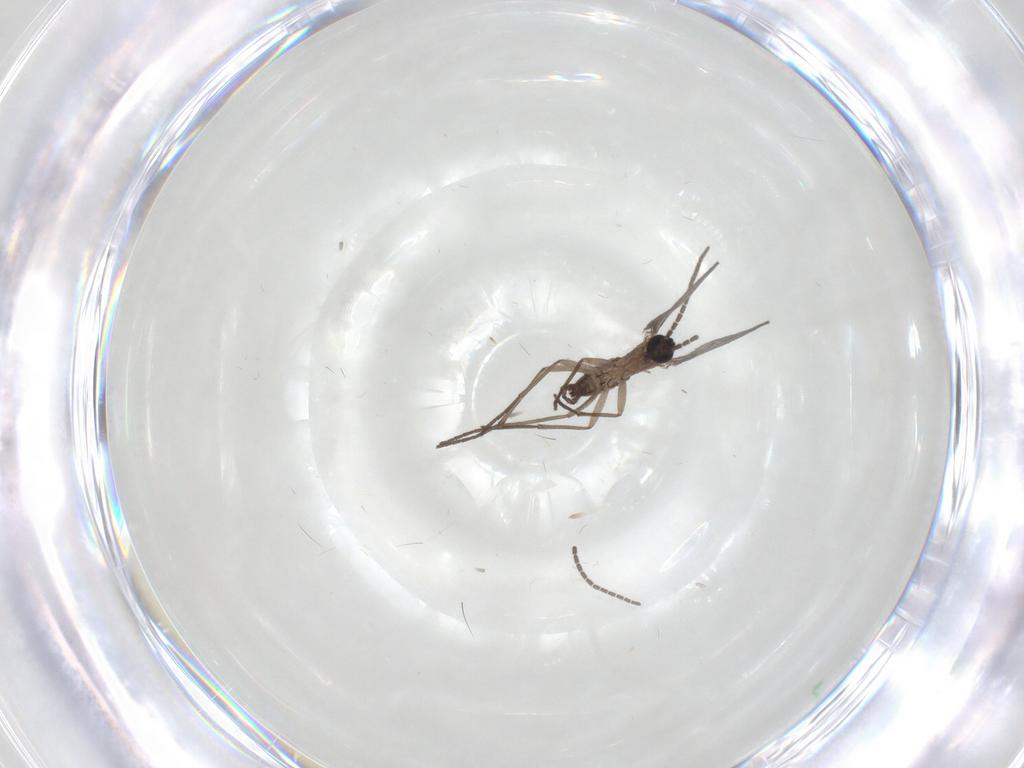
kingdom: Animalia
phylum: Arthropoda
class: Insecta
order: Diptera
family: Sciaridae
